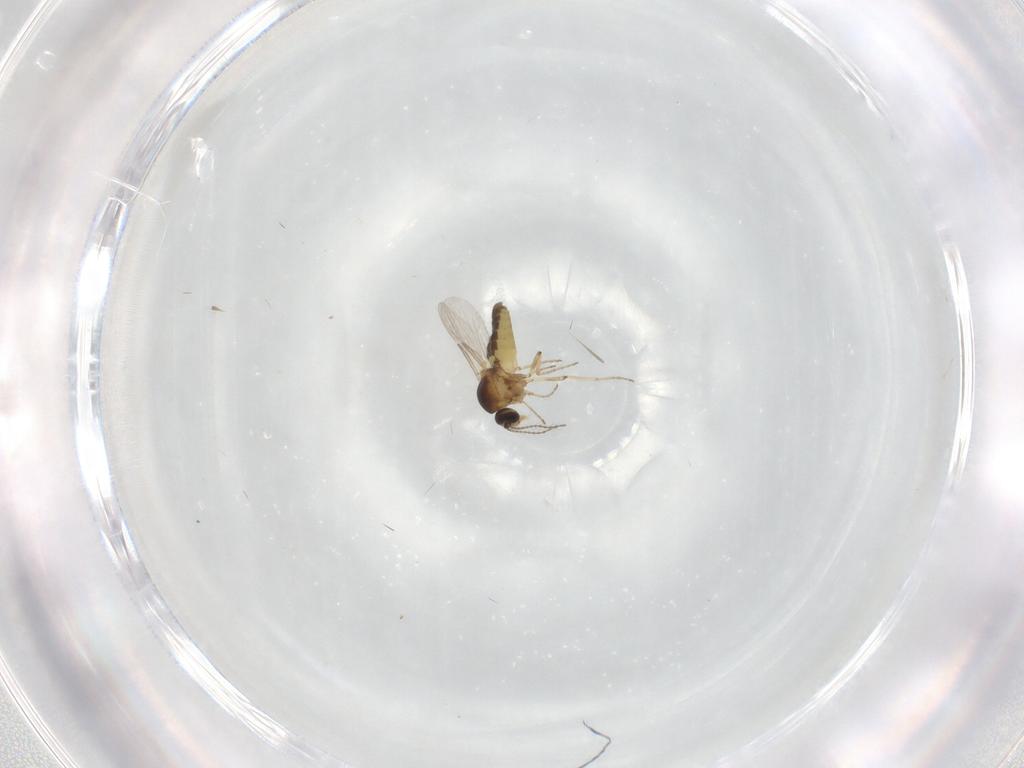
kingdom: Animalia
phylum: Arthropoda
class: Insecta
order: Diptera
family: Ceratopogonidae
